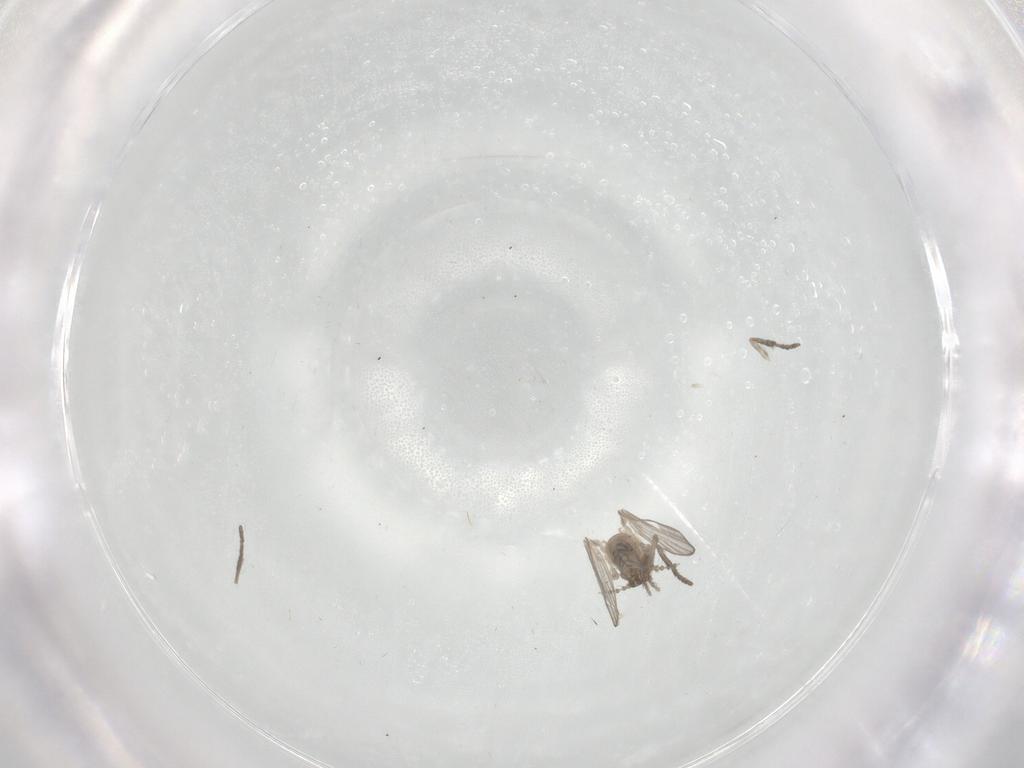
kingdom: Animalia
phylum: Arthropoda
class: Insecta
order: Diptera
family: Psychodidae
